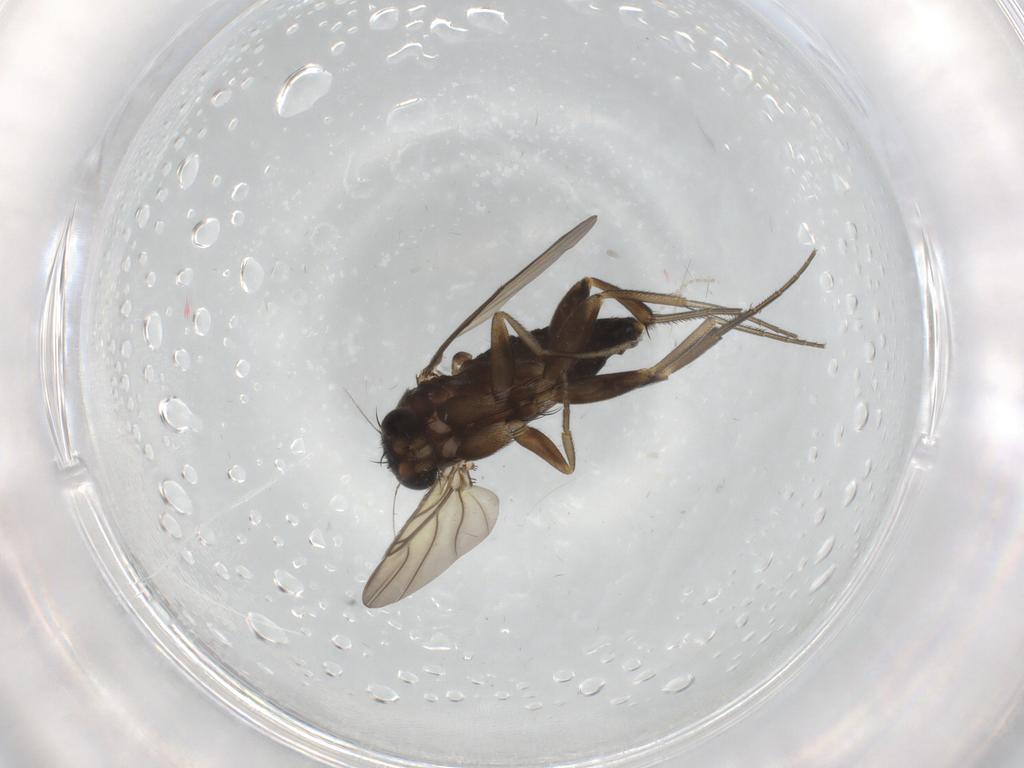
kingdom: Animalia
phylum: Arthropoda
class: Insecta
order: Diptera
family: Phoridae
